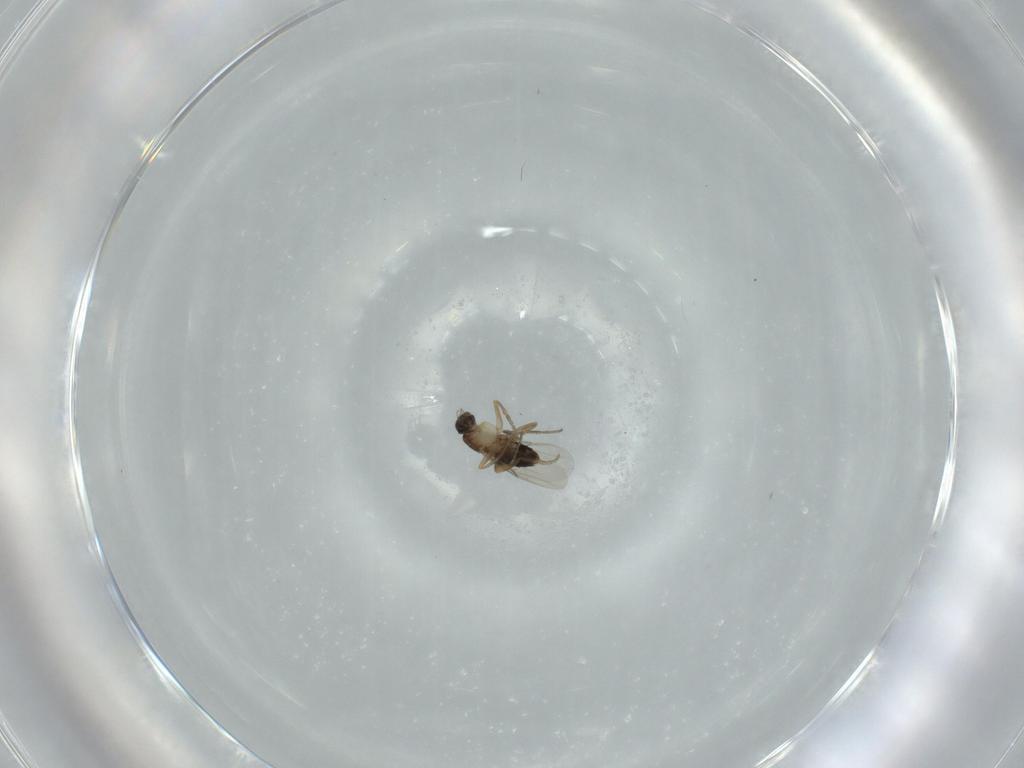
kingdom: Animalia
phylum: Arthropoda
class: Insecta
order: Diptera
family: Phoridae
